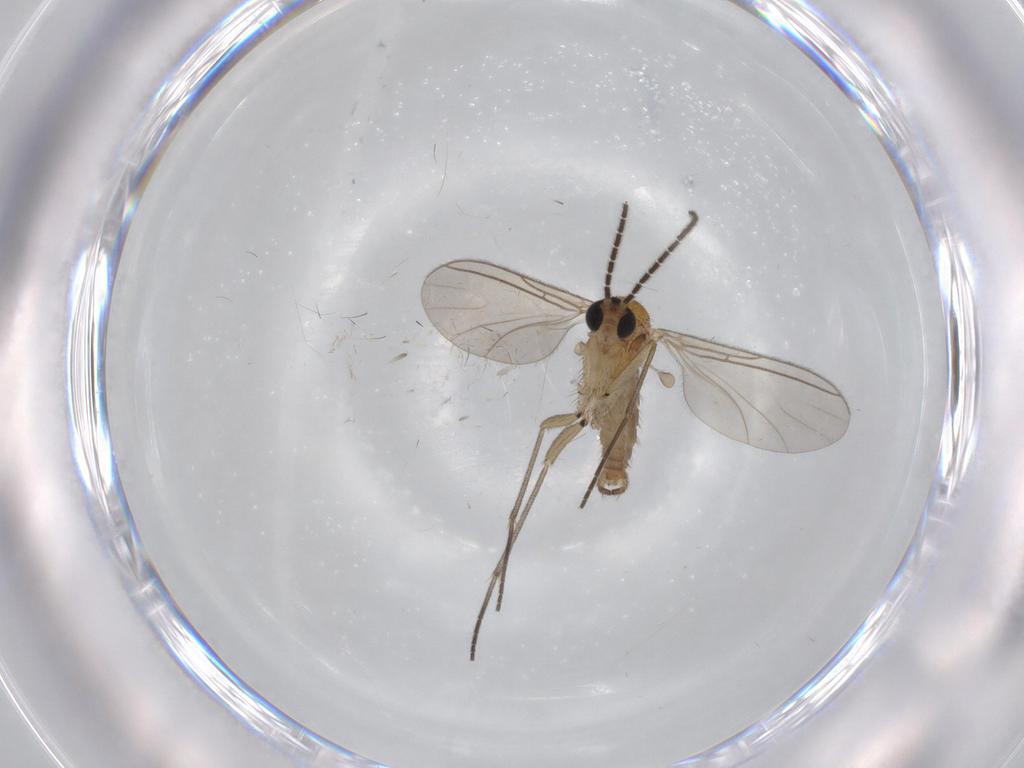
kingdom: Animalia
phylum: Arthropoda
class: Insecta
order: Diptera
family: Sciaridae
